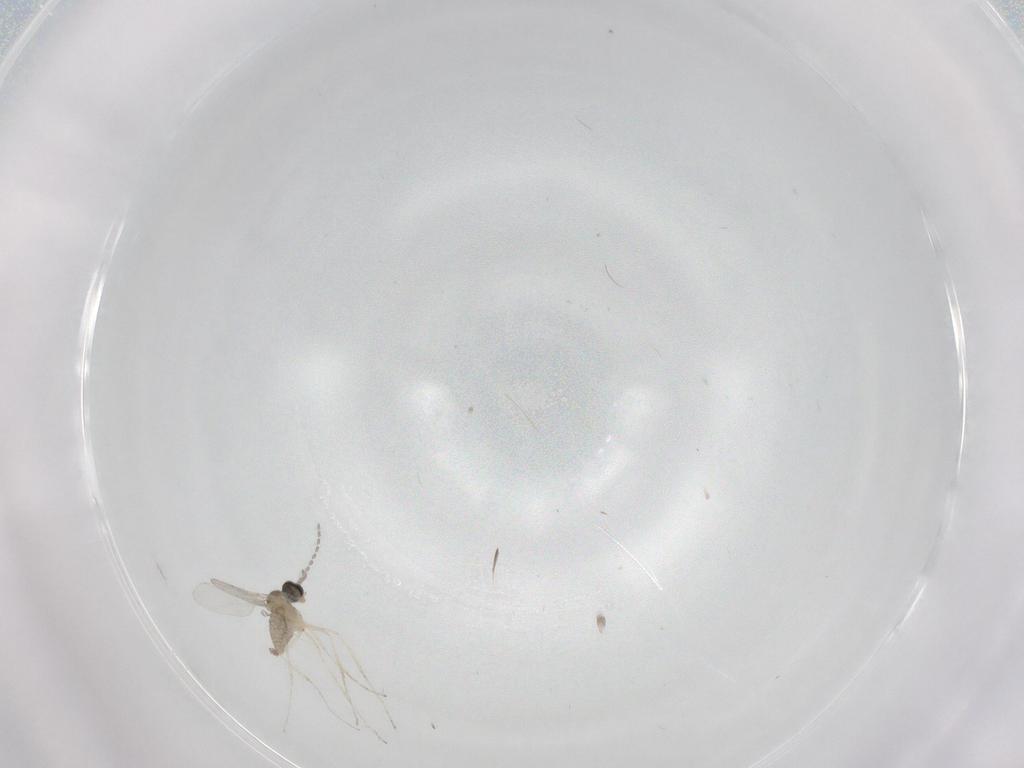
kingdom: Animalia
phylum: Arthropoda
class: Insecta
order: Diptera
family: Cecidomyiidae
